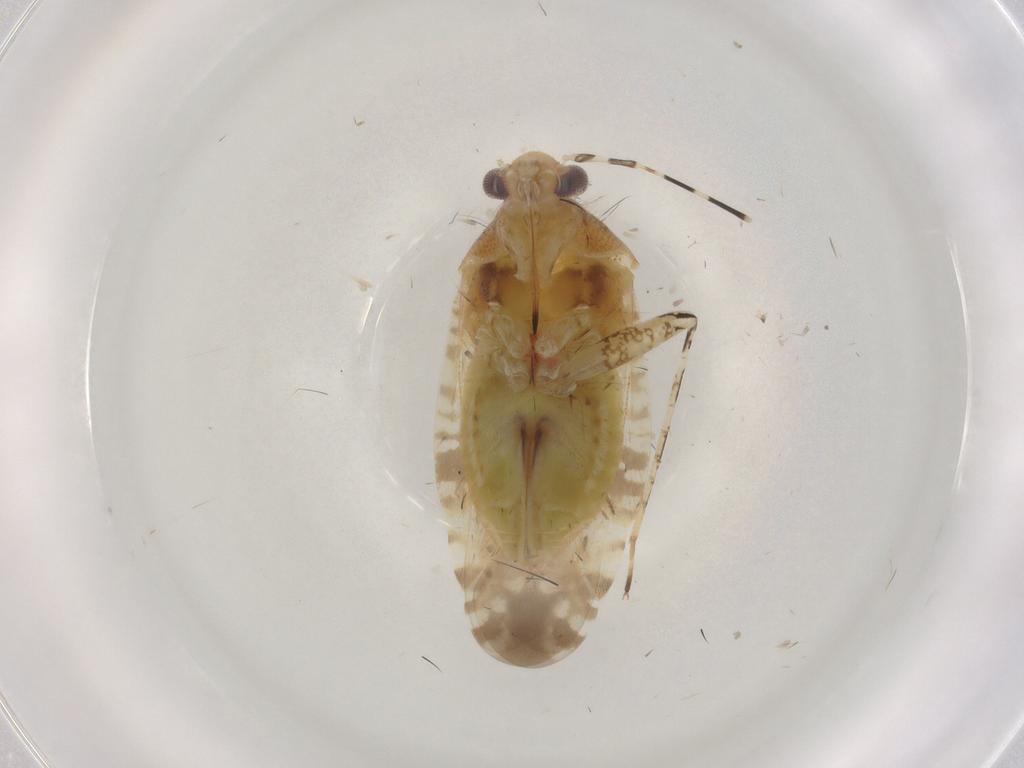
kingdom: Animalia
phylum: Arthropoda
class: Insecta
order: Hemiptera
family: Miridae
